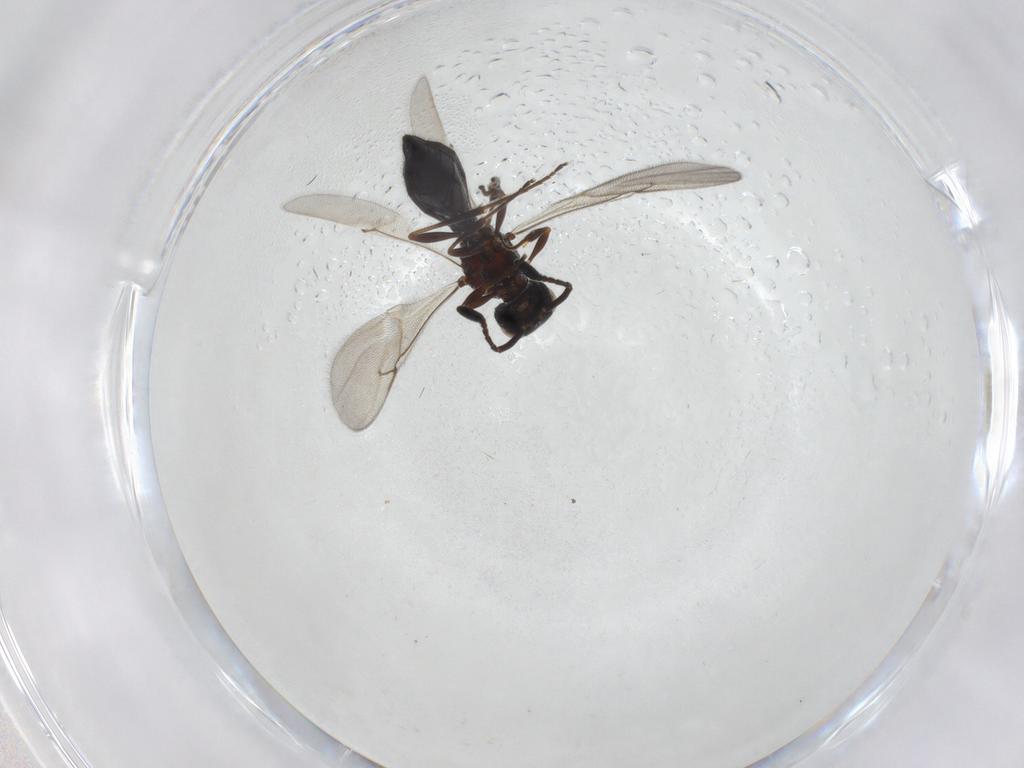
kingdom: Animalia
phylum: Arthropoda
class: Insecta
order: Hymenoptera
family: Scelionidae
